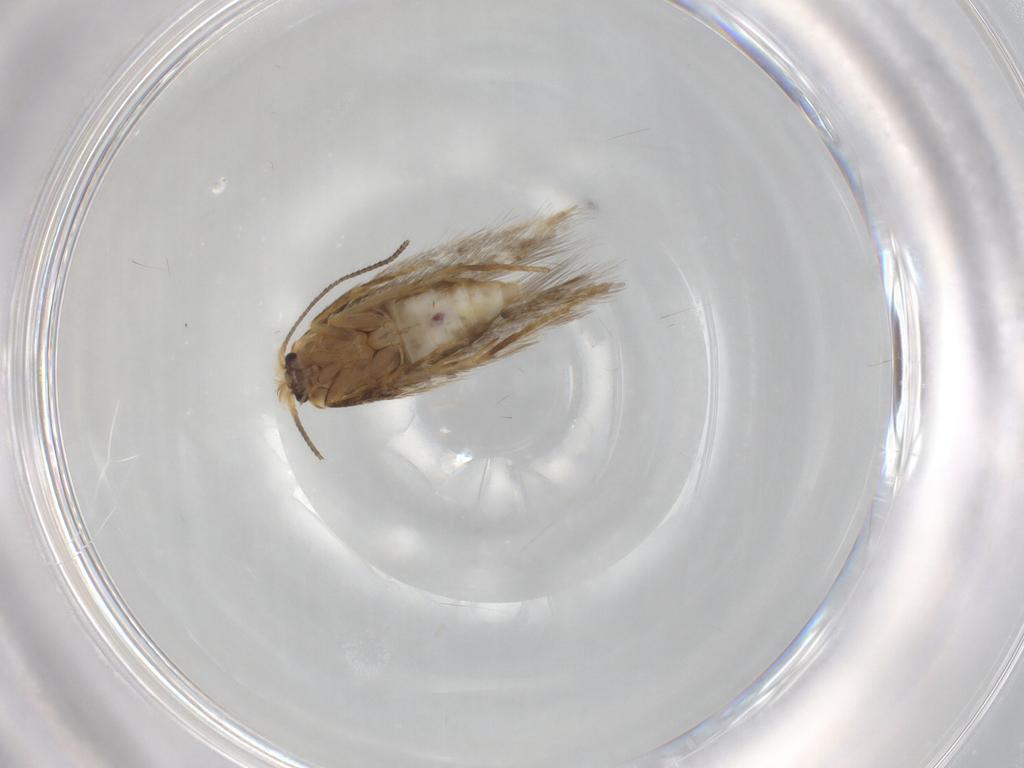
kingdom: Animalia
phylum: Arthropoda
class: Insecta
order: Lepidoptera
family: Nepticulidae
